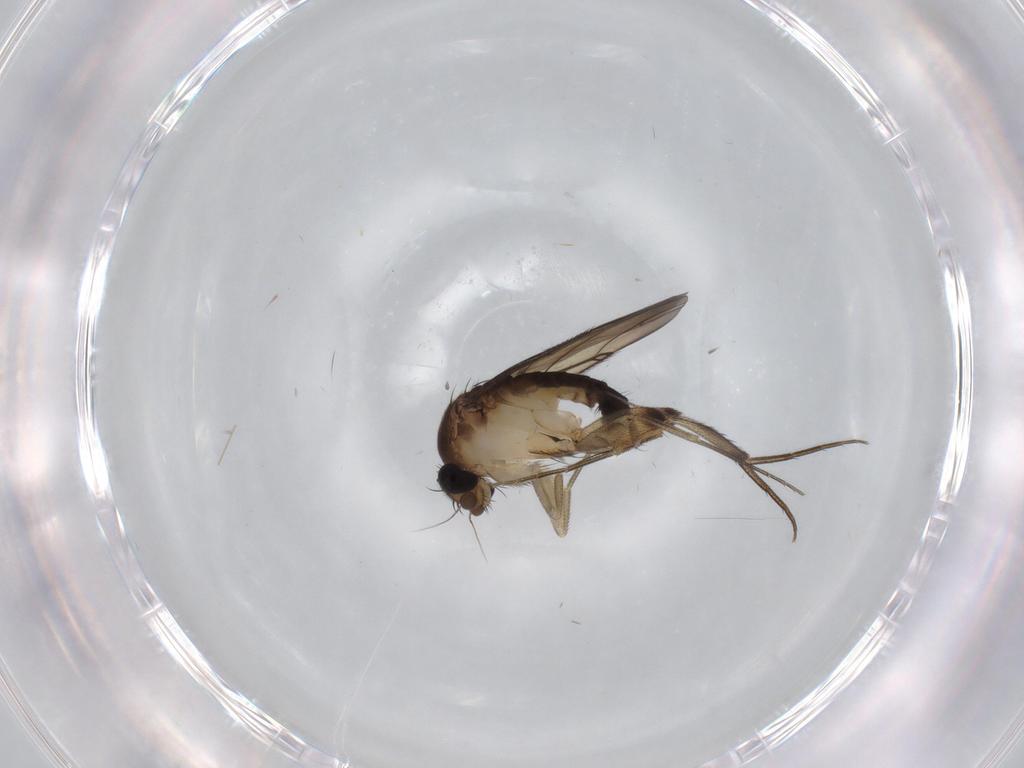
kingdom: Animalia
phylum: Arthropoda
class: Insecta
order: Diptera
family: Phoridae
